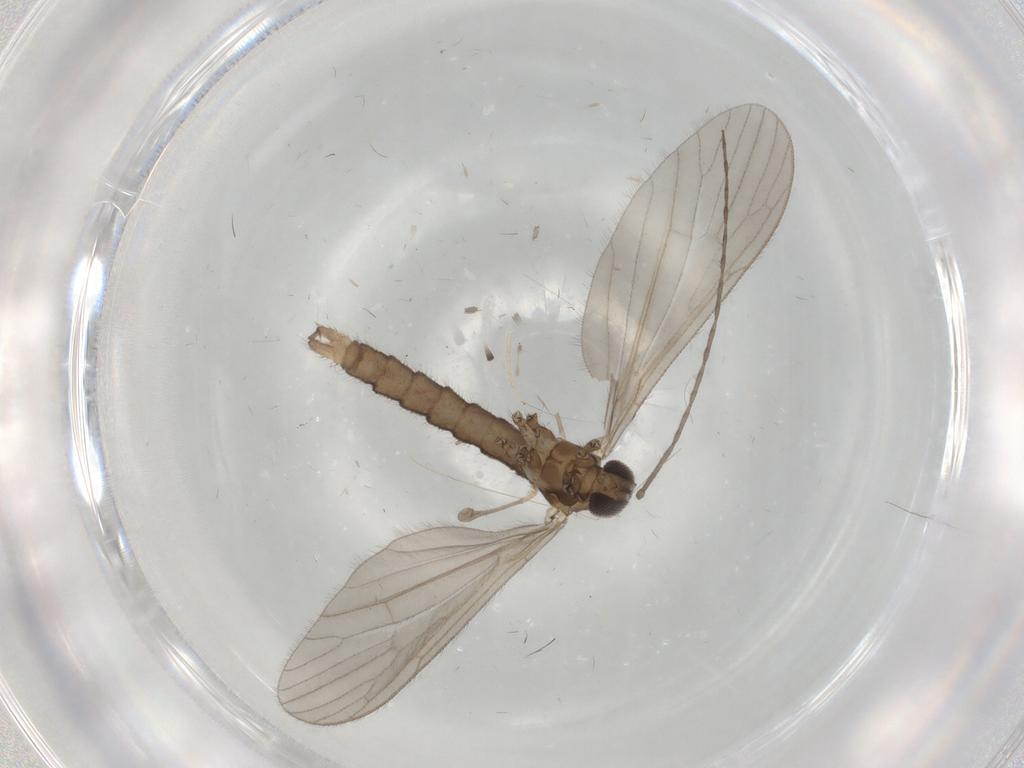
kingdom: Animalia
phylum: Arthropoda
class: Insecta
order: Diptera
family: Limoniidae
